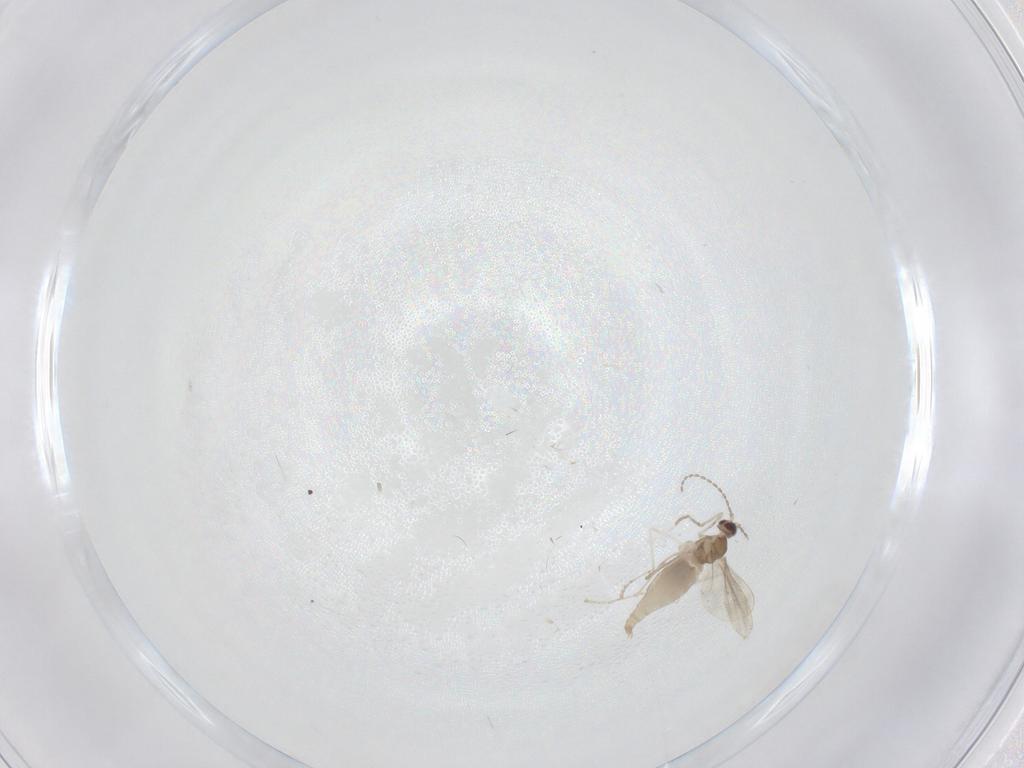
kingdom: Animalia
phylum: Arthropoda
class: Insecta
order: Diptera
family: Cecidomyiidae
